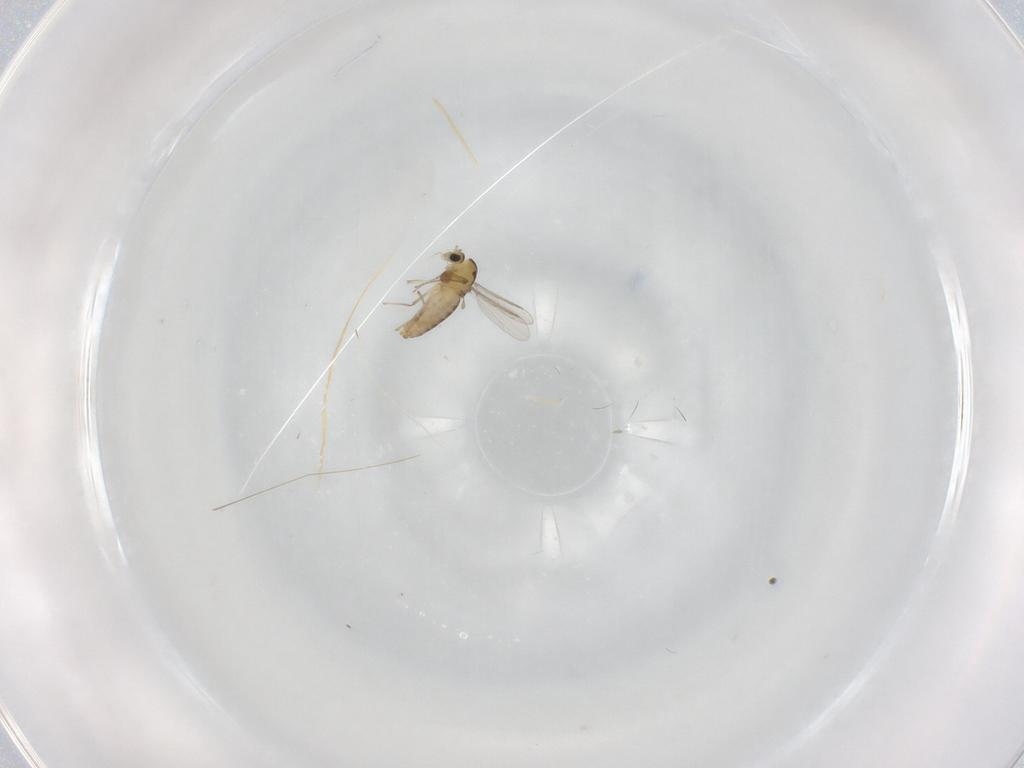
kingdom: Animalia
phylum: Arthropoda
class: Insecta
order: Diptera
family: Chironomidae
